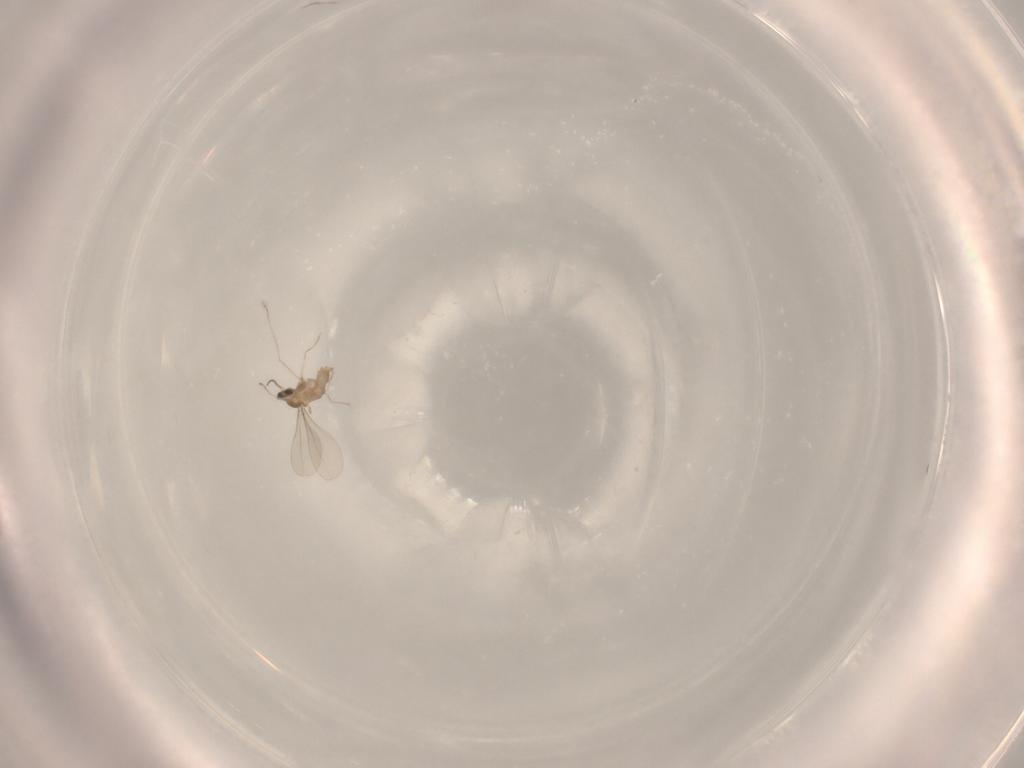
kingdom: Animalia
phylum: Arthropoda
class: Insecta
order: Diptera
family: Cecidomyiidae
